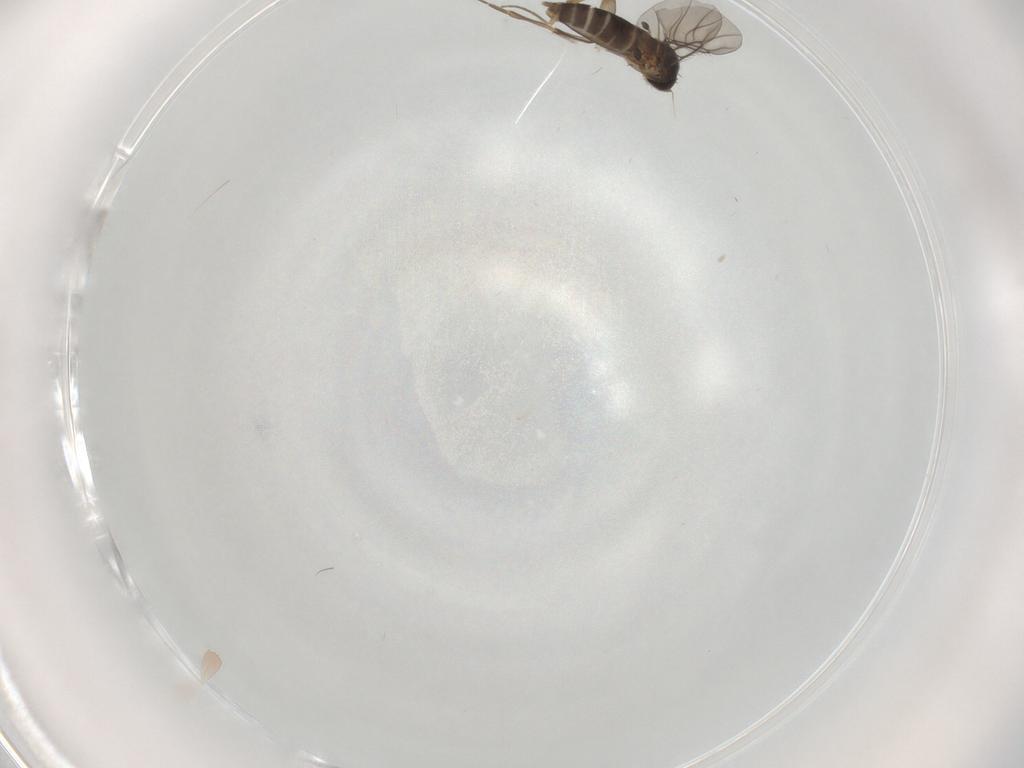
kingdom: Animalia
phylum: Arthropoda
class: Insecta
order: Diptera
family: Phoridae
